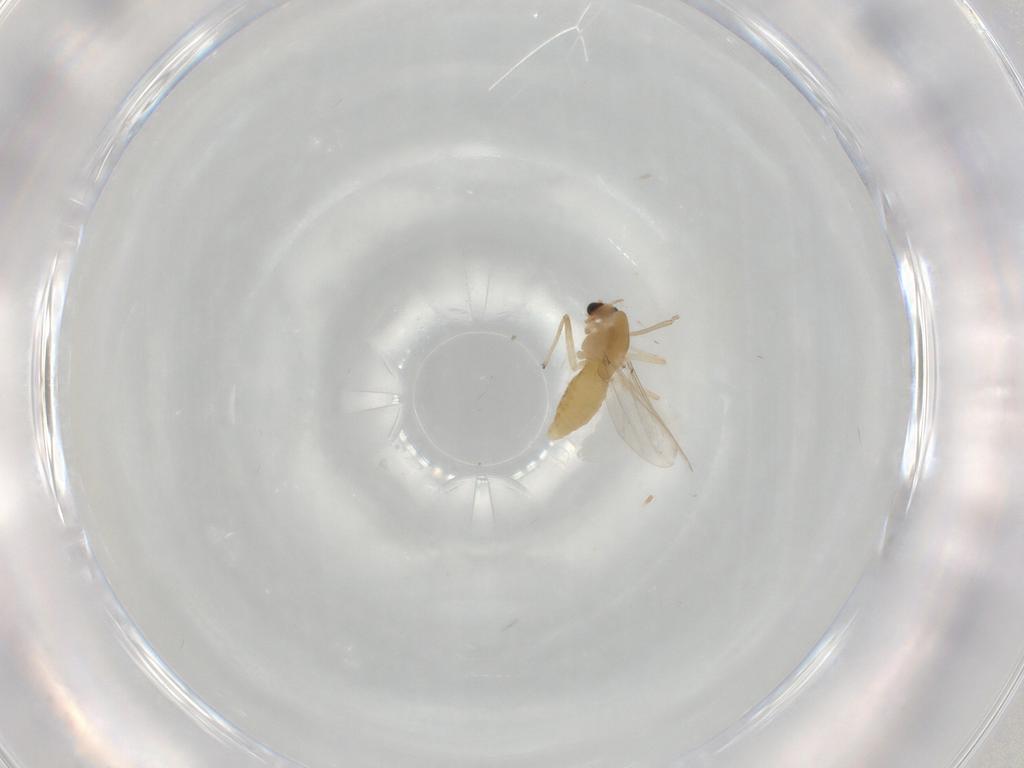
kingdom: Animalia
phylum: Arthropoda
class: Insecta
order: Diptera
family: Chironomidae
